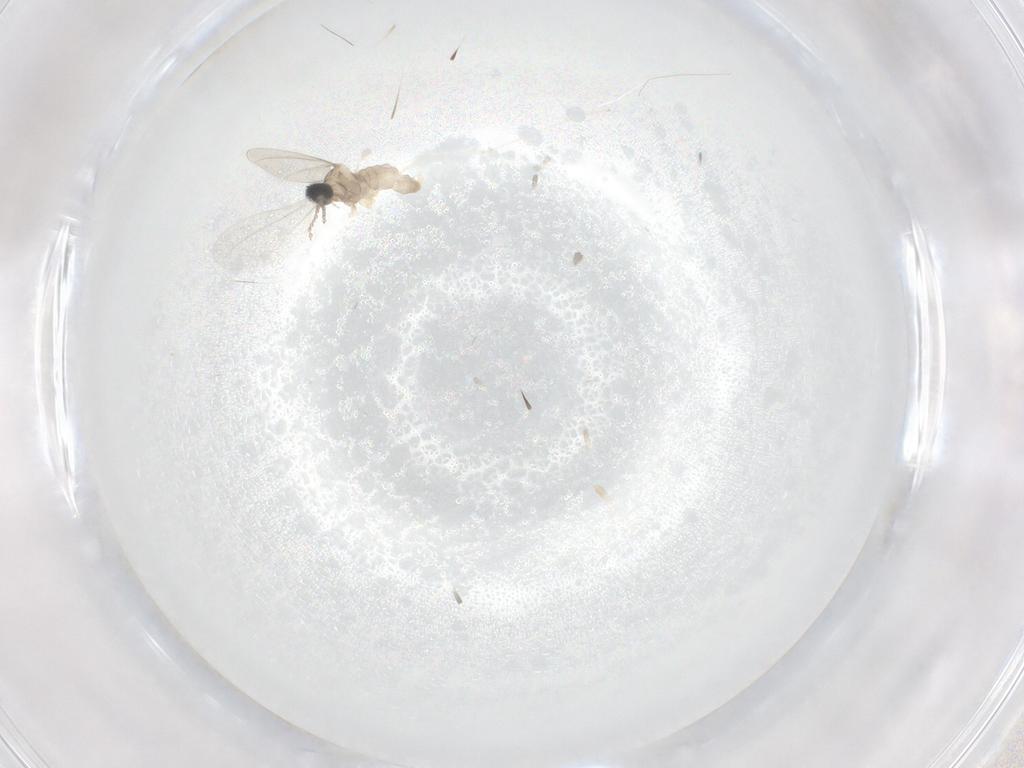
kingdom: Animalia
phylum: Arthropoda
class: Insecta
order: Diptera
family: Cecidomyiidae
